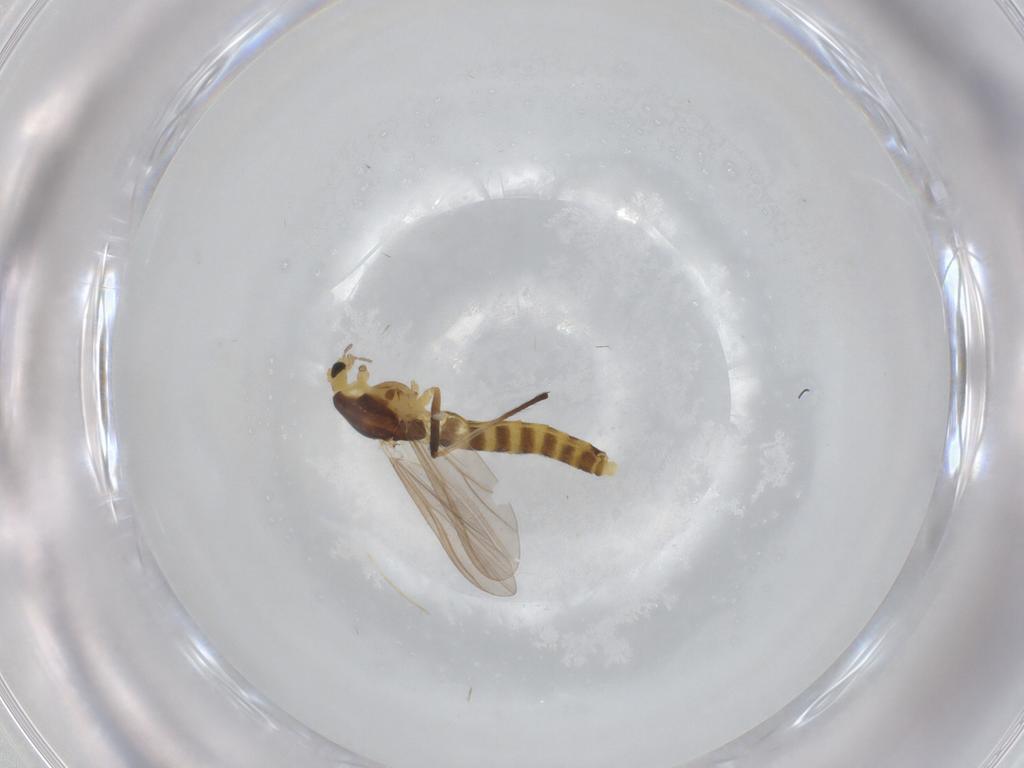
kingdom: Animalia
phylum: Arthropoda
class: Insecta
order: Diptera
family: Chironomidae
